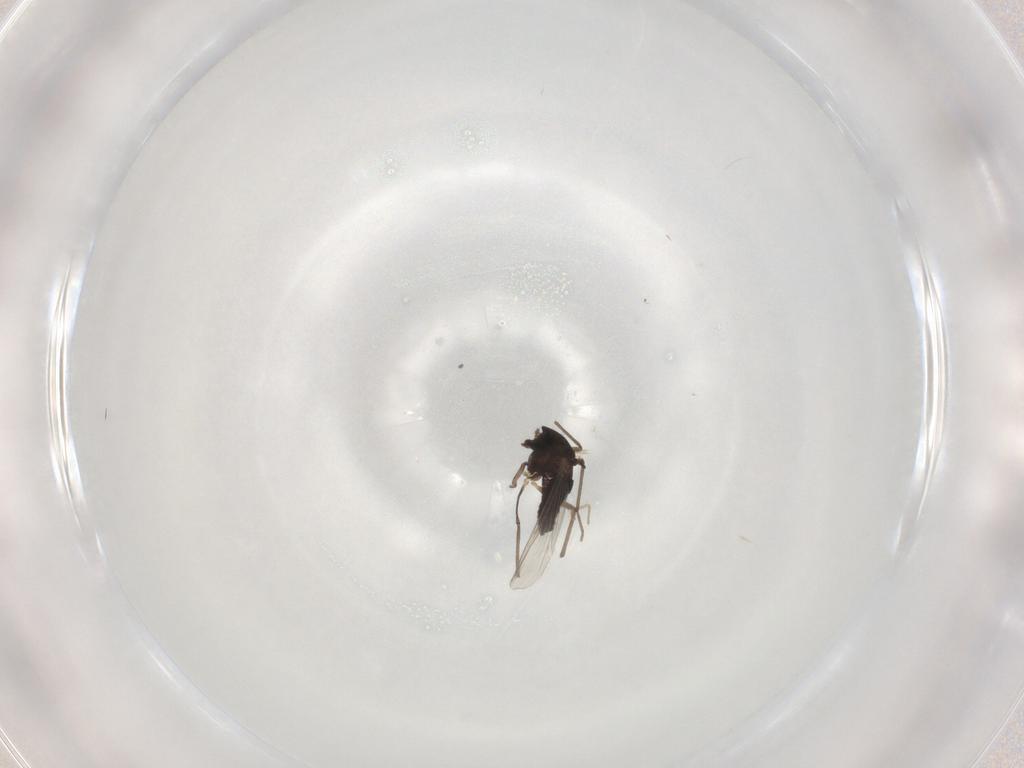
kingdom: Animalia
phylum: Arthropoda
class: Insecta
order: Diptera
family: Chironomidae
